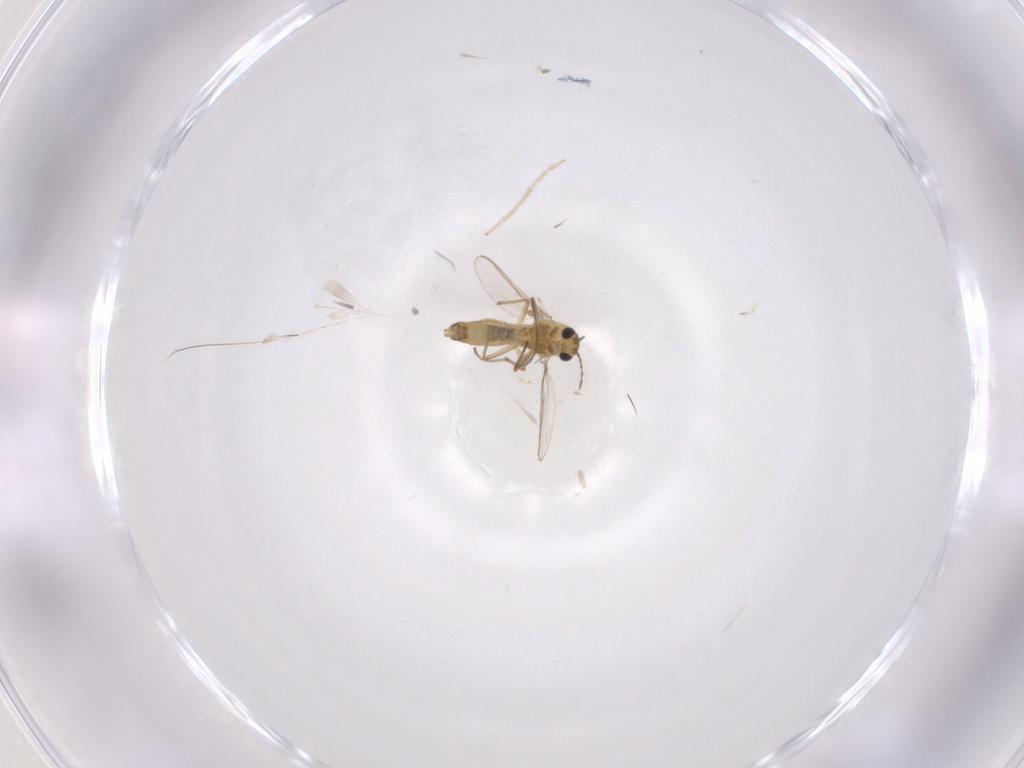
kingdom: Animalia
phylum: Arthropoda
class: Insecta
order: Diptera
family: Chironomidae
